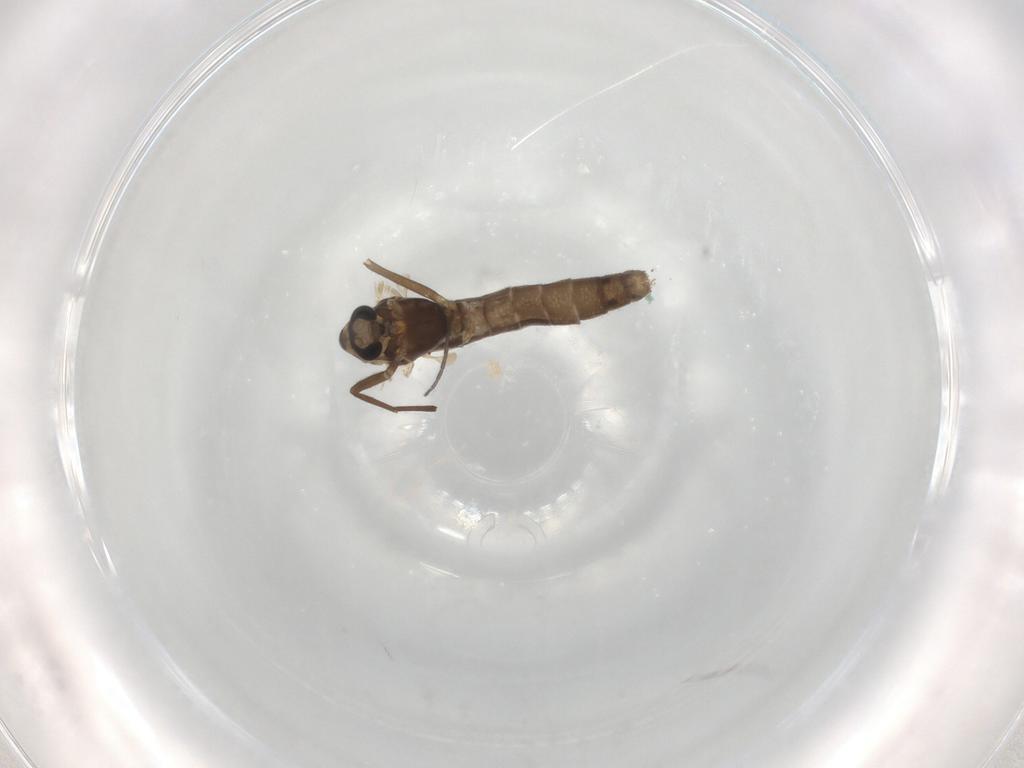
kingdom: Animalia
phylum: Arthropoda
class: Insecta
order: Diptera
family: Chironomidae
